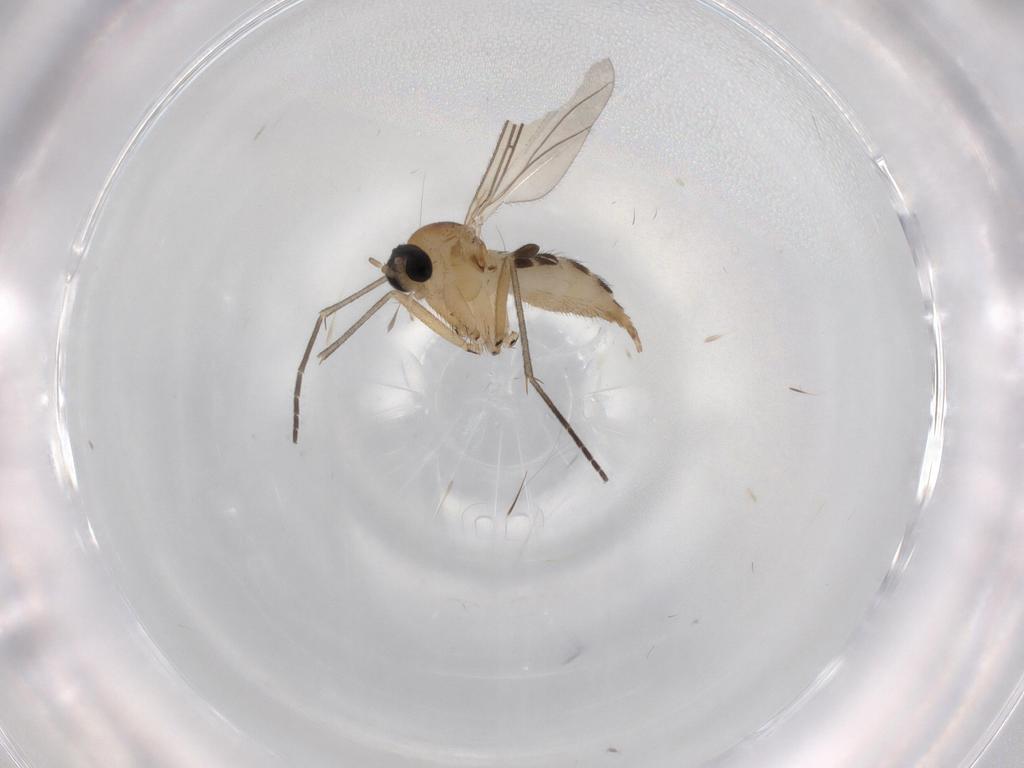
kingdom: Animalia
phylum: Arthropoda
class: Insecta
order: Diptera
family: Sciaridae
